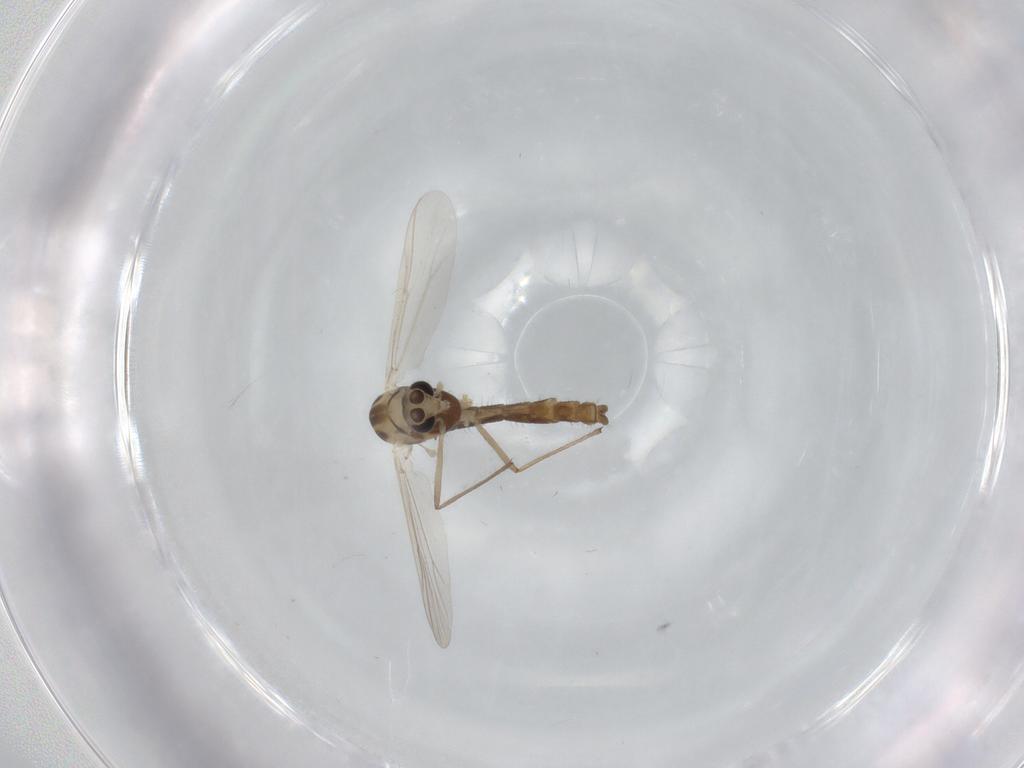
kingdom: Animalia
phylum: Arthropoda
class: Insecta
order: Diptera
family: Chironomidae
